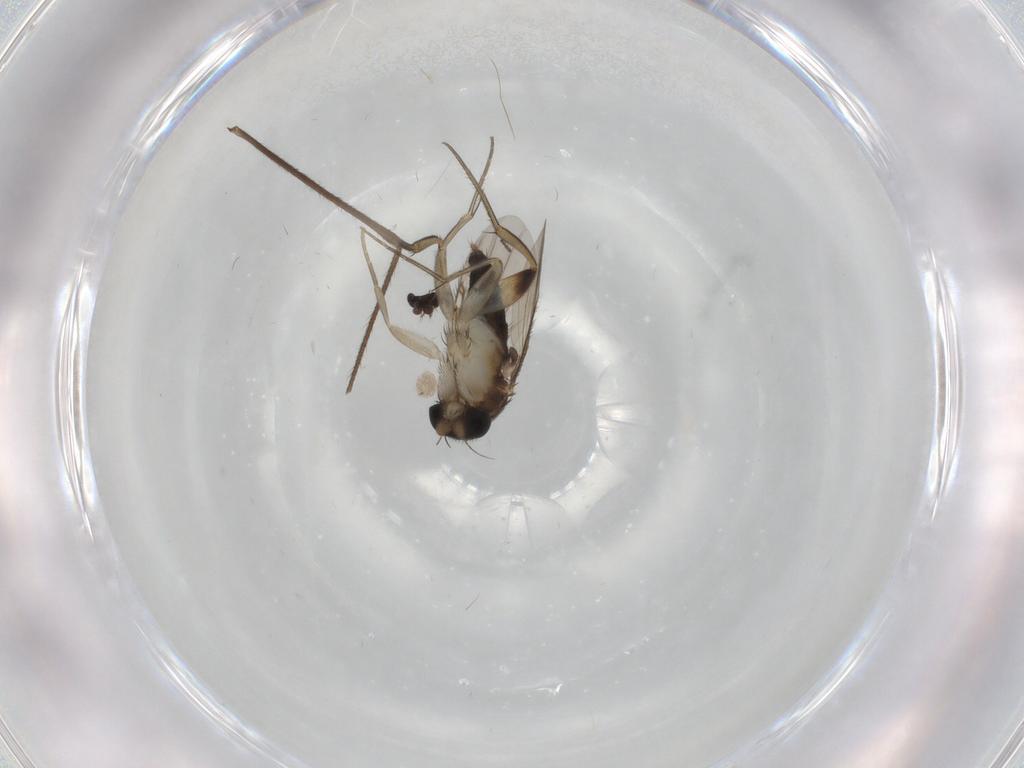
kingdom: Animalia
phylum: Arthropoda
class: Insecta
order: Diptera
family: Phoridae
